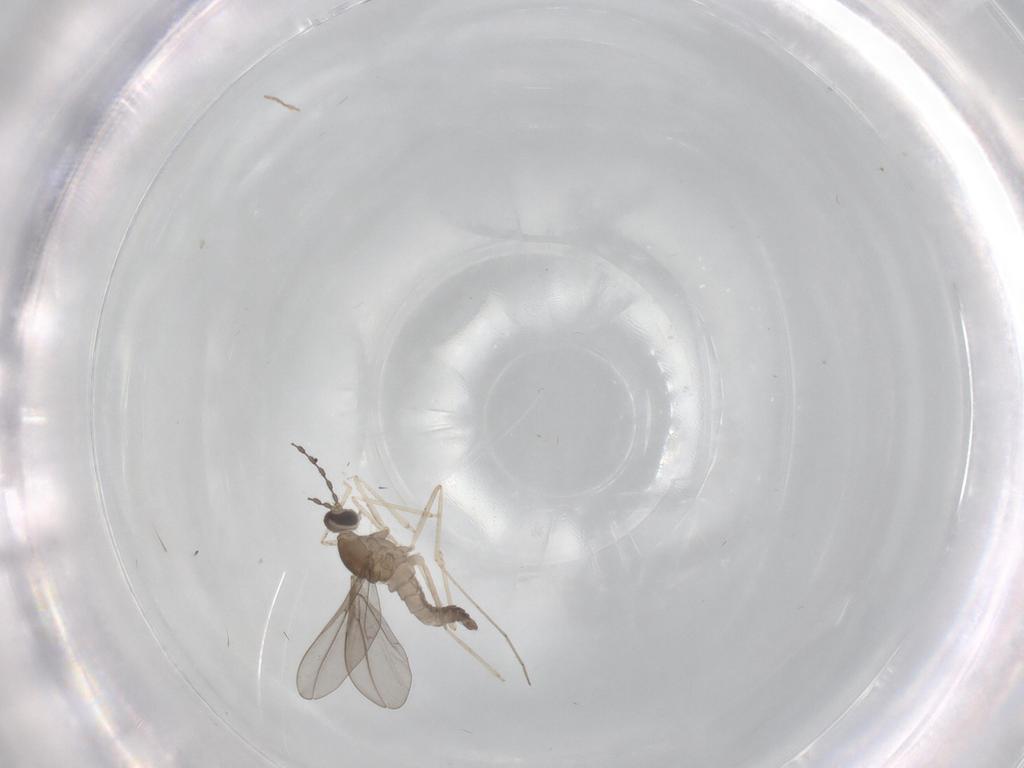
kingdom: Animalia
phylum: Arthropoda
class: Insecta
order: Diptera
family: Cecidomyiidae
